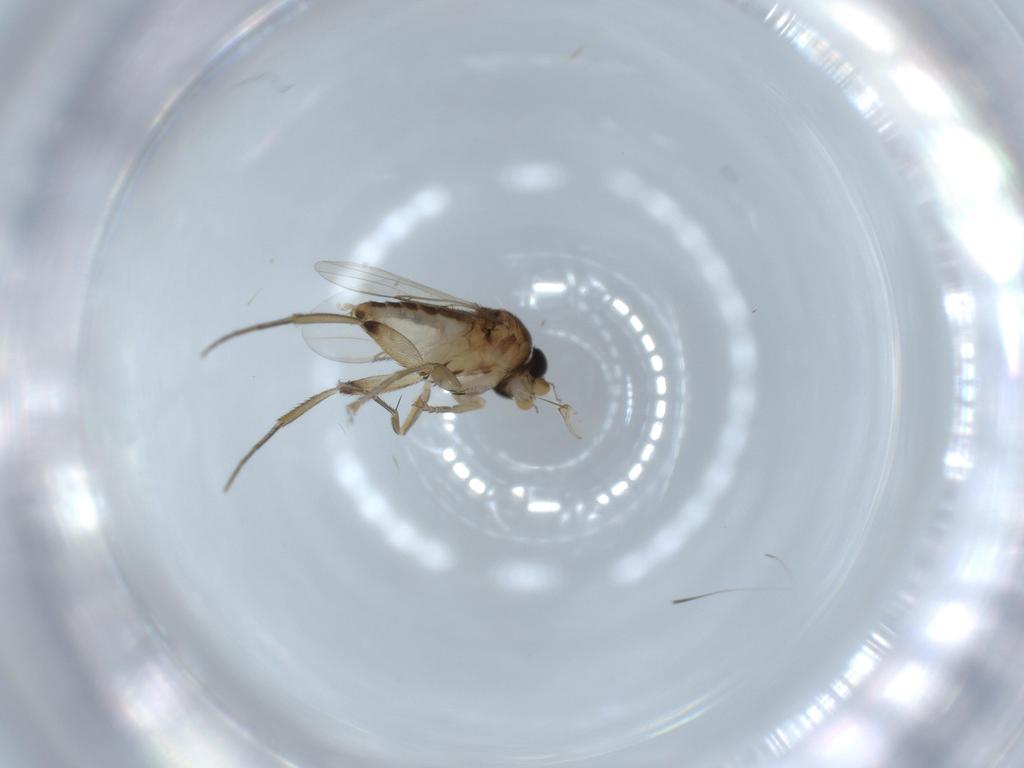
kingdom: Animalia
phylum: Arthropoda
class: Insecta
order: Diptera
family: Phoridae
